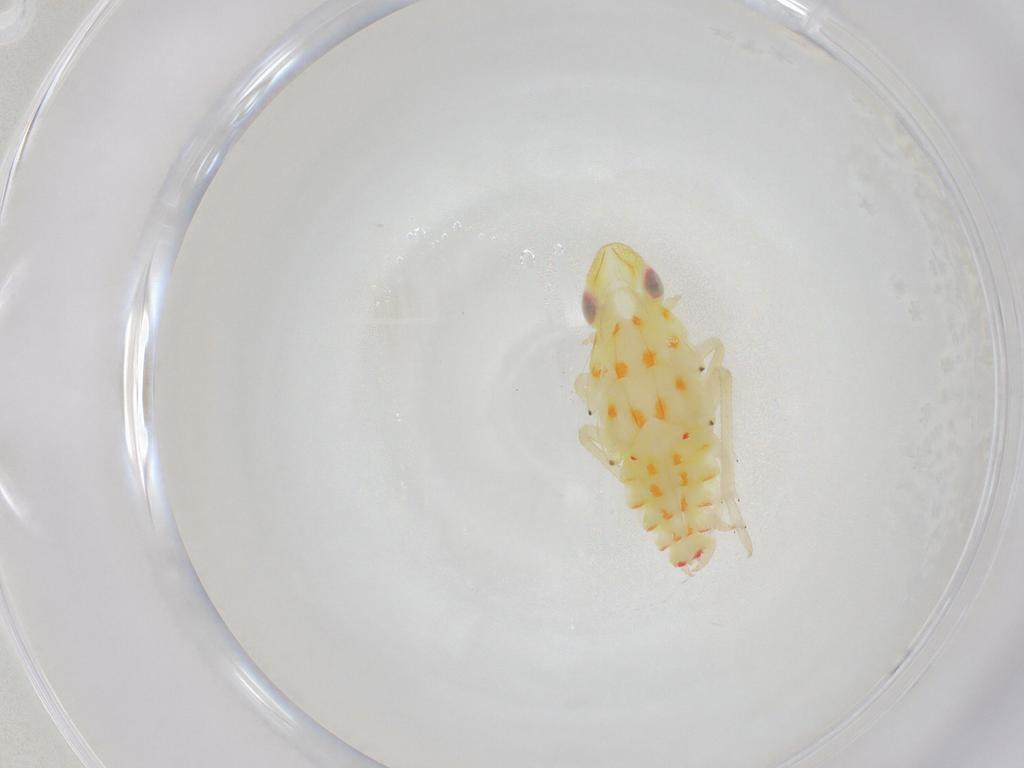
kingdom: Animalia
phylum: Arthropoda
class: Insecta
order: Hemiptera
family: Tropiduchidae
